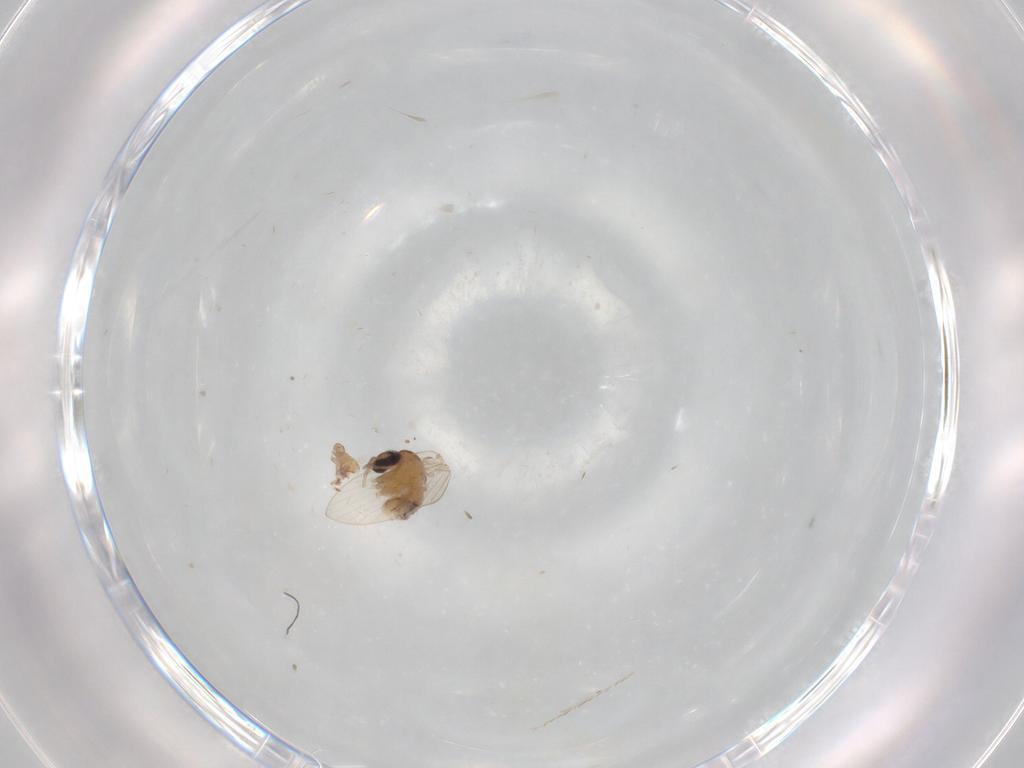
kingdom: Animalia
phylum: Arthropoda
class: Insecta
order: Diptera
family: Psychodidae
